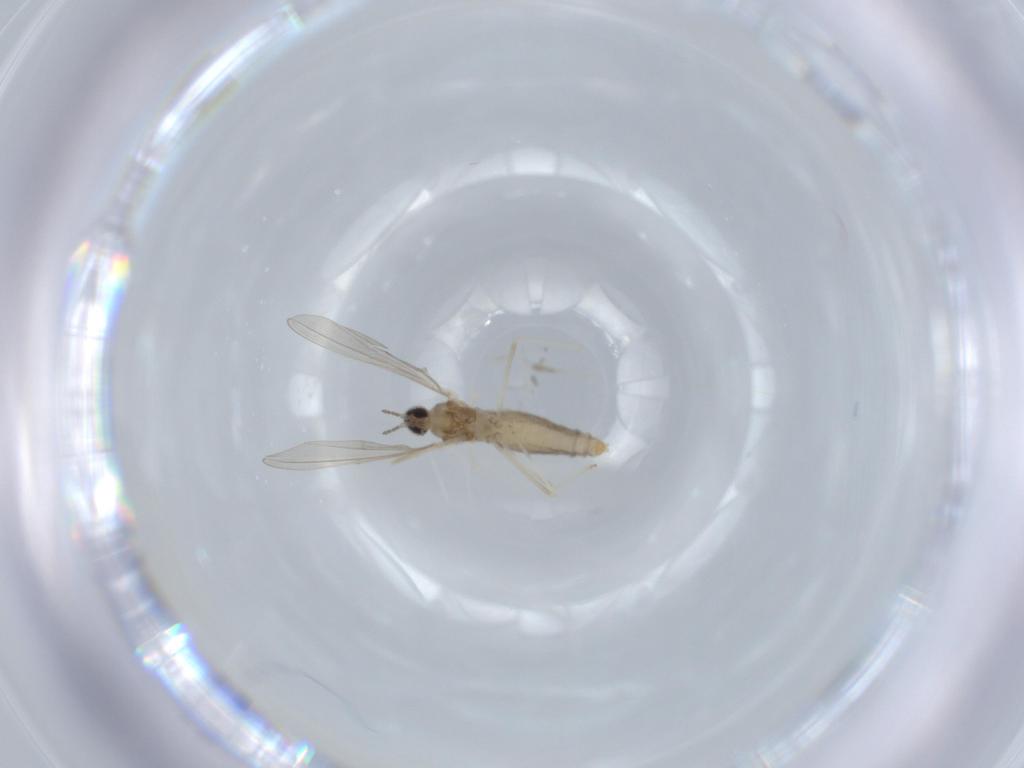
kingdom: Animalia
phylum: Arthropoda
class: Insecta
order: Diptera
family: Cecidomyiidae
